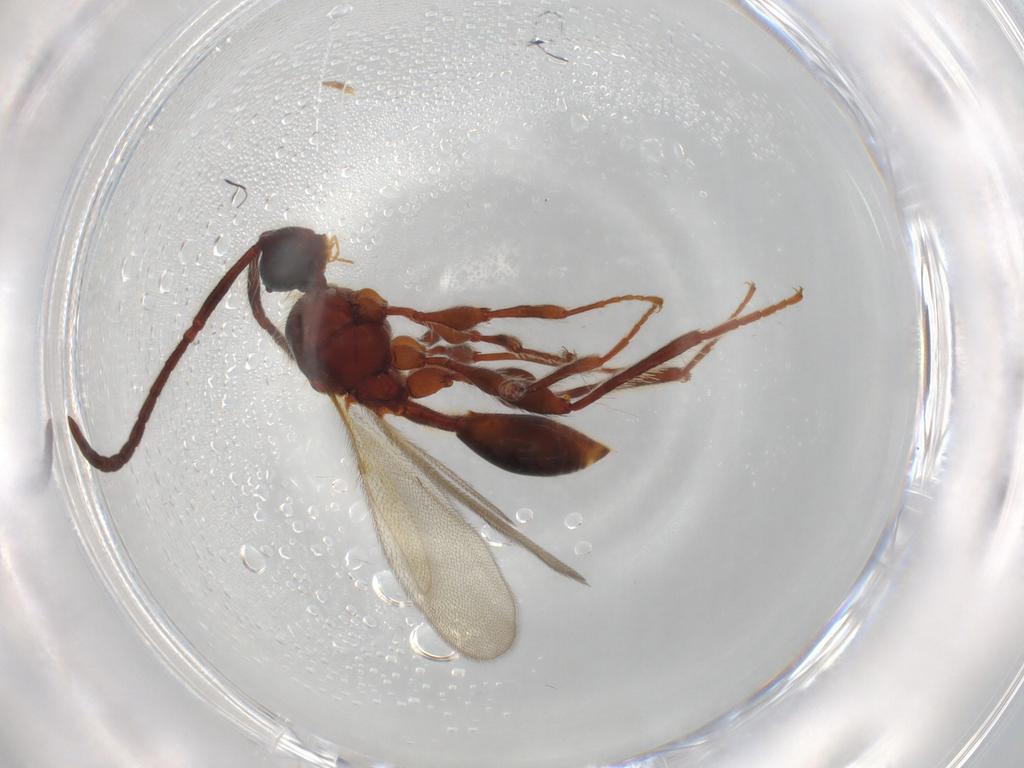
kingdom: Animalia
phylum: Arthropoda
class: Insecta
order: Hymenoptera
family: Diapriidae
